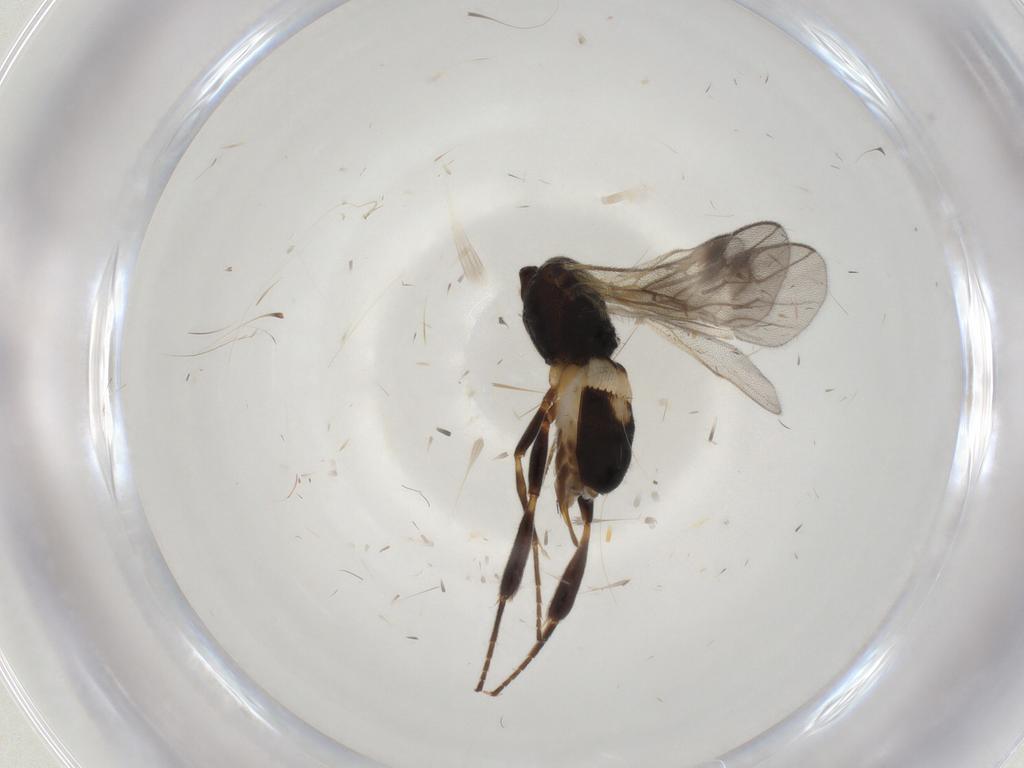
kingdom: Animalia
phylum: Arthropoda
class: Insecta
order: Hymenoptera
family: Braconidae
